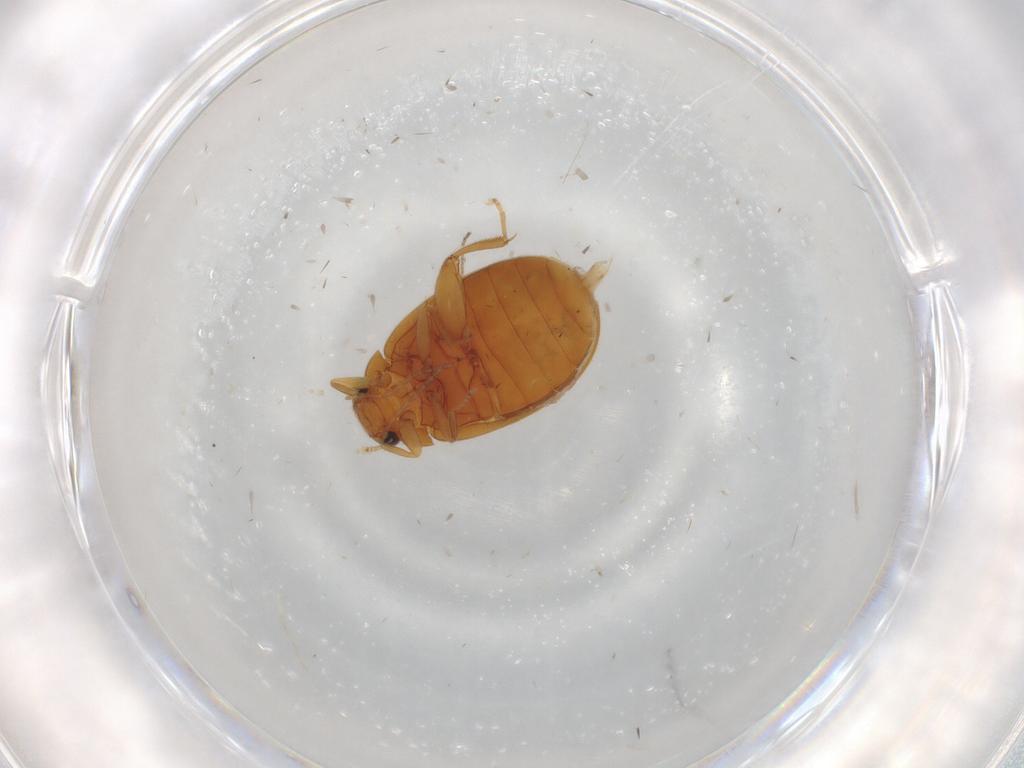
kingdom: Animalia
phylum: Arthropoda
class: Insecta
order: Coleoptera
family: Scirtidae
